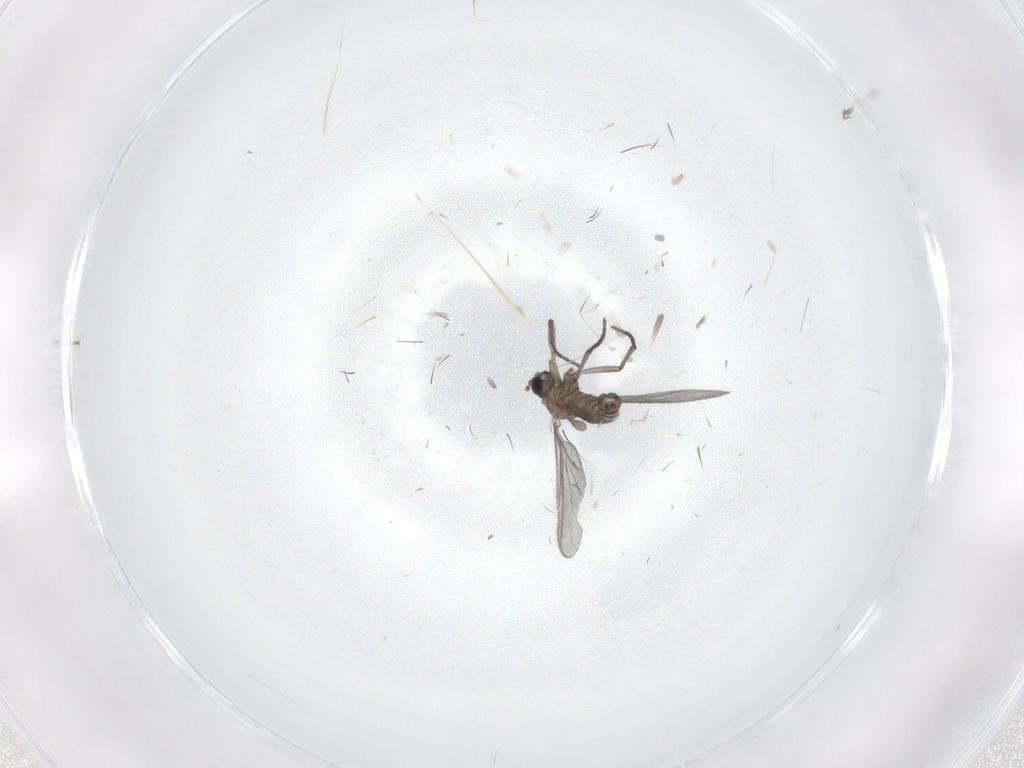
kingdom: Animalia
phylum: Arthropoda
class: Insecta
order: Diptera
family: Sciaridae
